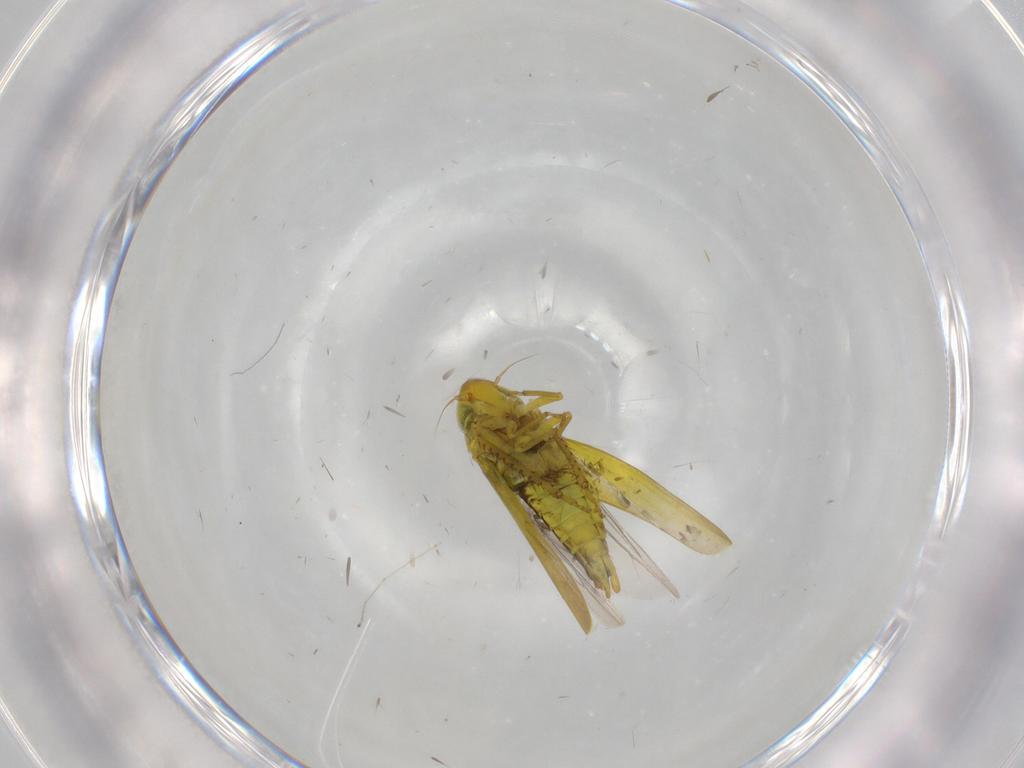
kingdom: Animalia
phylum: Arthropoda
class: Insecta
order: Hemiptera
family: Cicadellidae
